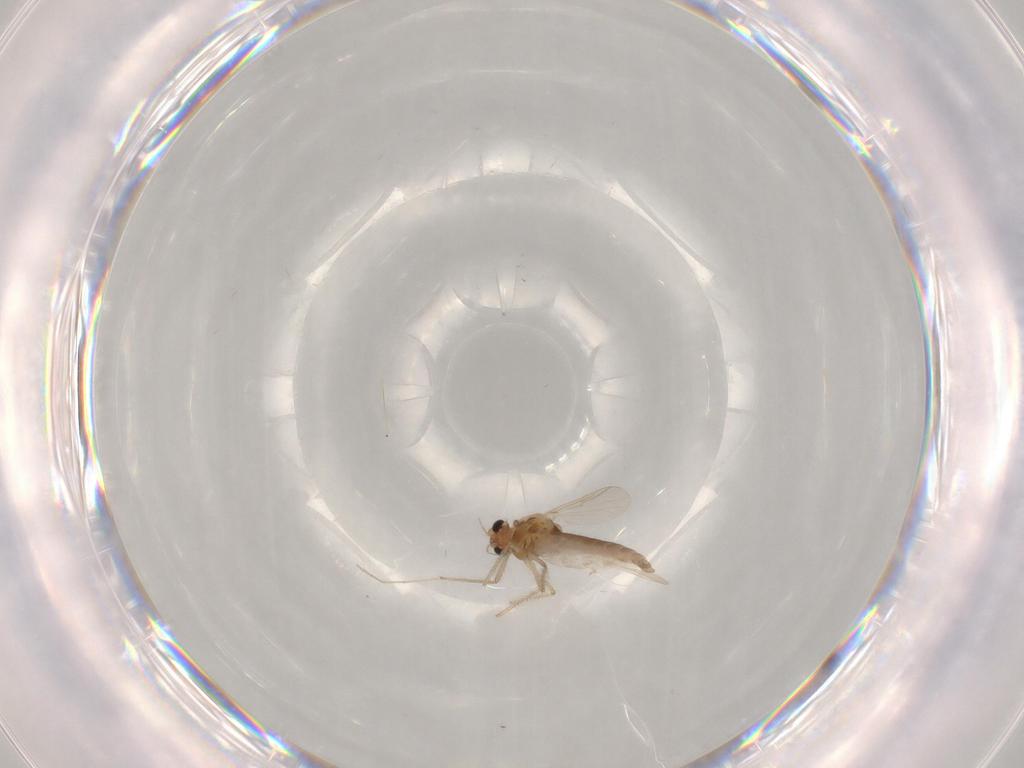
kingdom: Animalia
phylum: Arthropoda
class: Insecta
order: Diptera
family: Chironomidae
